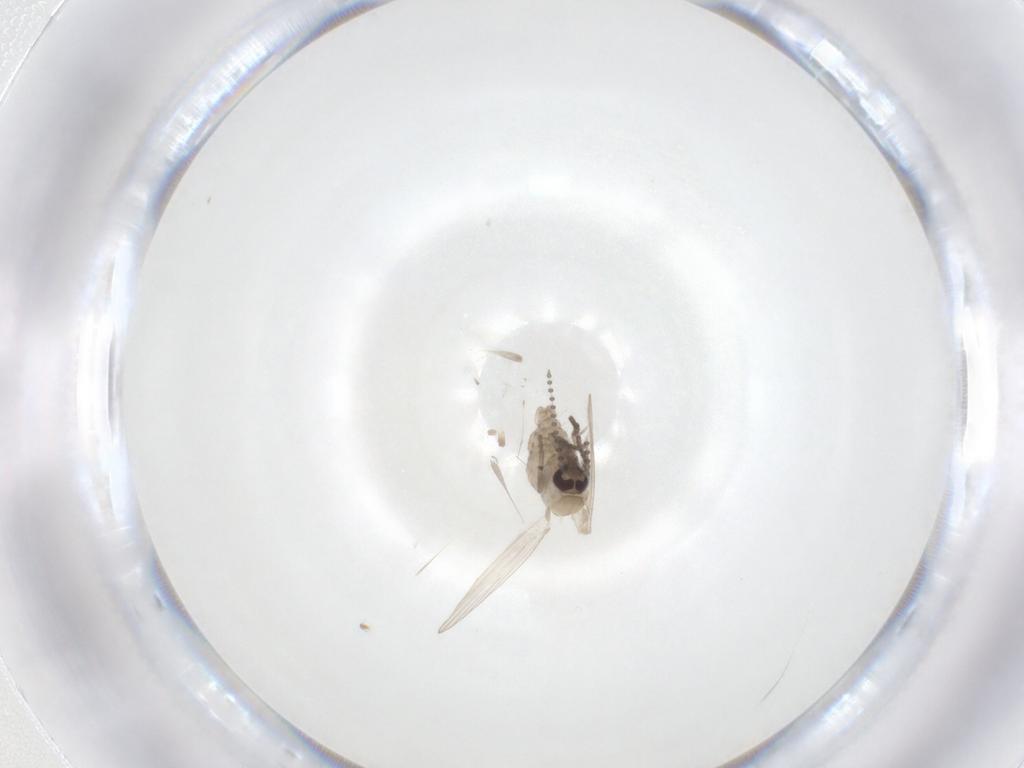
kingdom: Animalia
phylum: Arthropoda
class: Insecta
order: Diptera
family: Psychodidae
